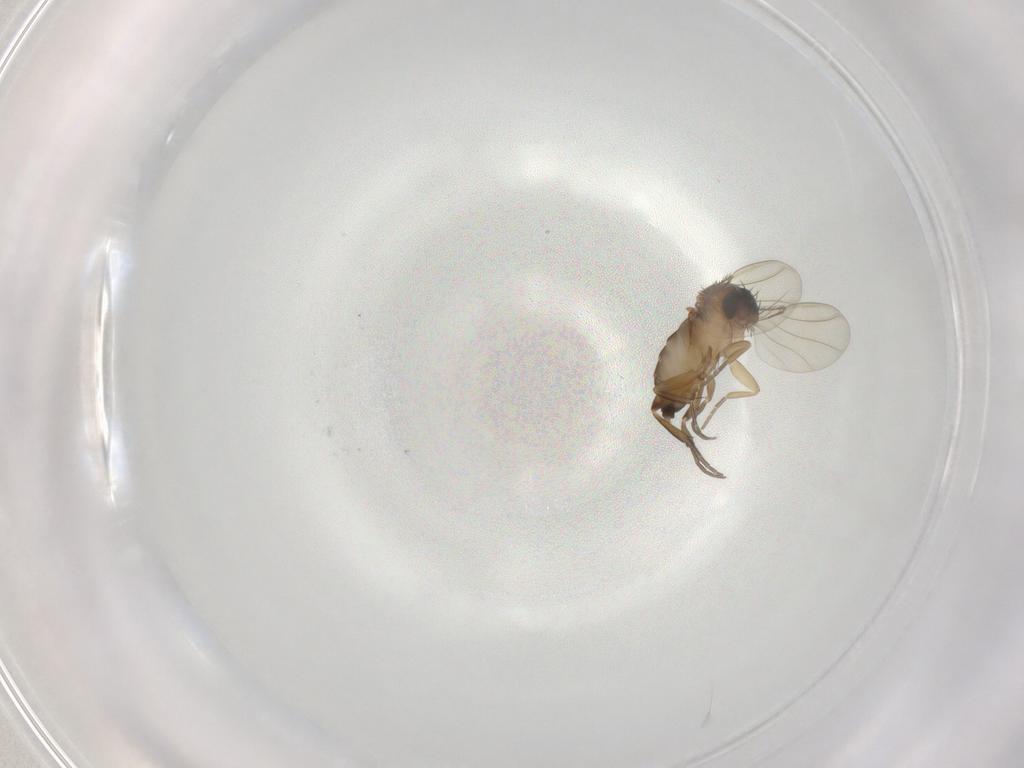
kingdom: Animalia
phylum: Arthropoda
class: Insecta
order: Diptera
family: Phoridae
